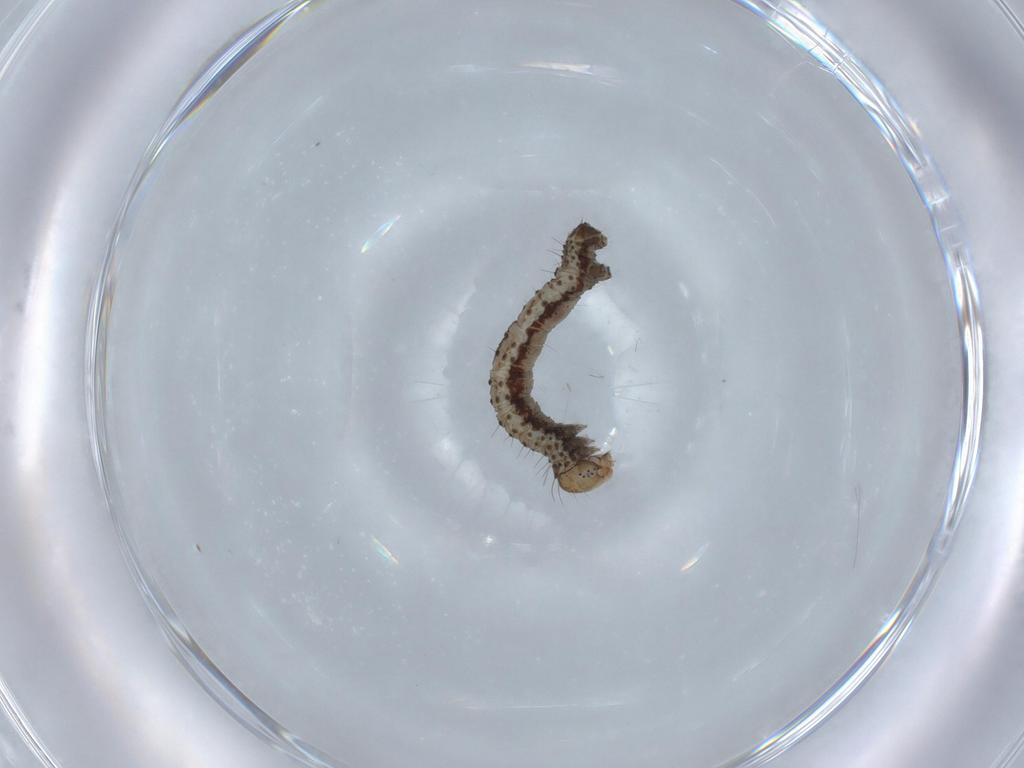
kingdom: Animalia
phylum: Arthropoda
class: Insecta
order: Lepidoptera
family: Geometridae
